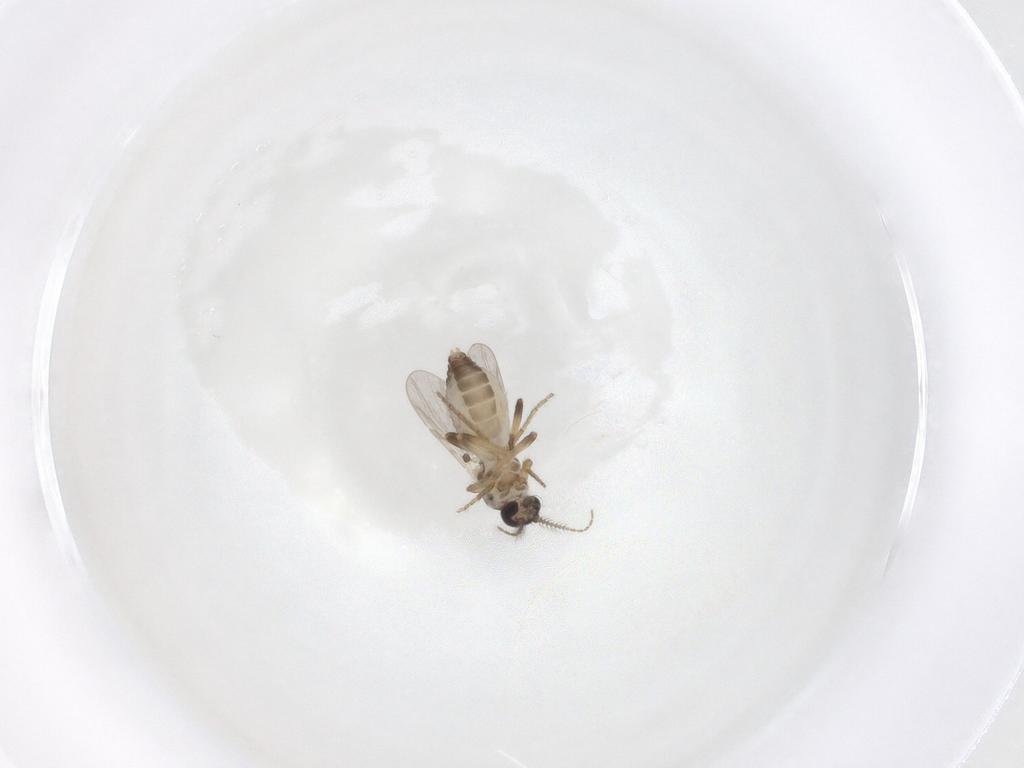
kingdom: Animalia
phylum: Arthropoda
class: Insecta
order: Diptera
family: Ceratopogonidae
